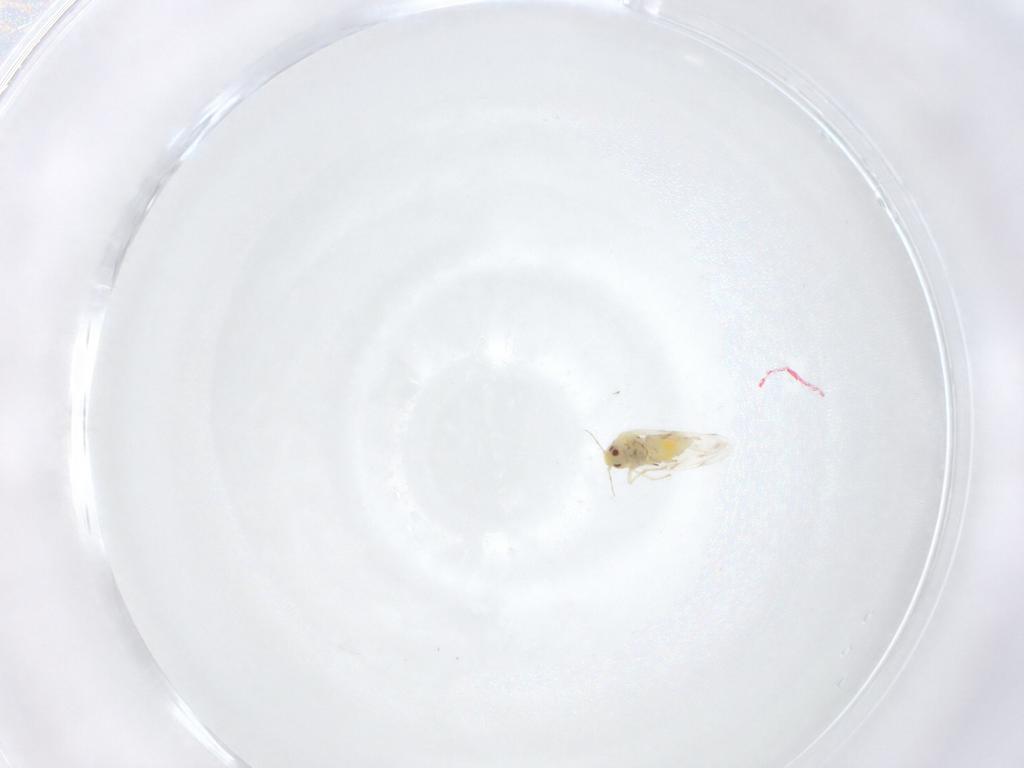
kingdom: Animalia
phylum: Arthropoda
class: Insecta
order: Hemiptera
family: Aleyrodidae
